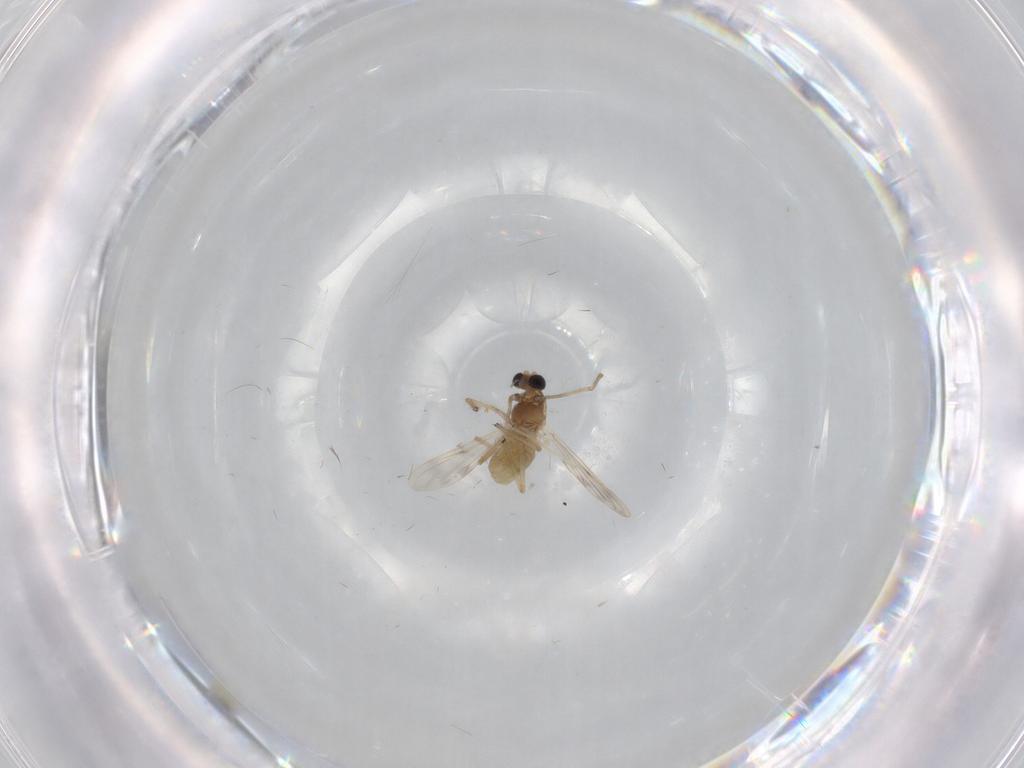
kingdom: Animalia
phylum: Arthropoda
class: Insecta
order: Diptera
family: Chironomidae
